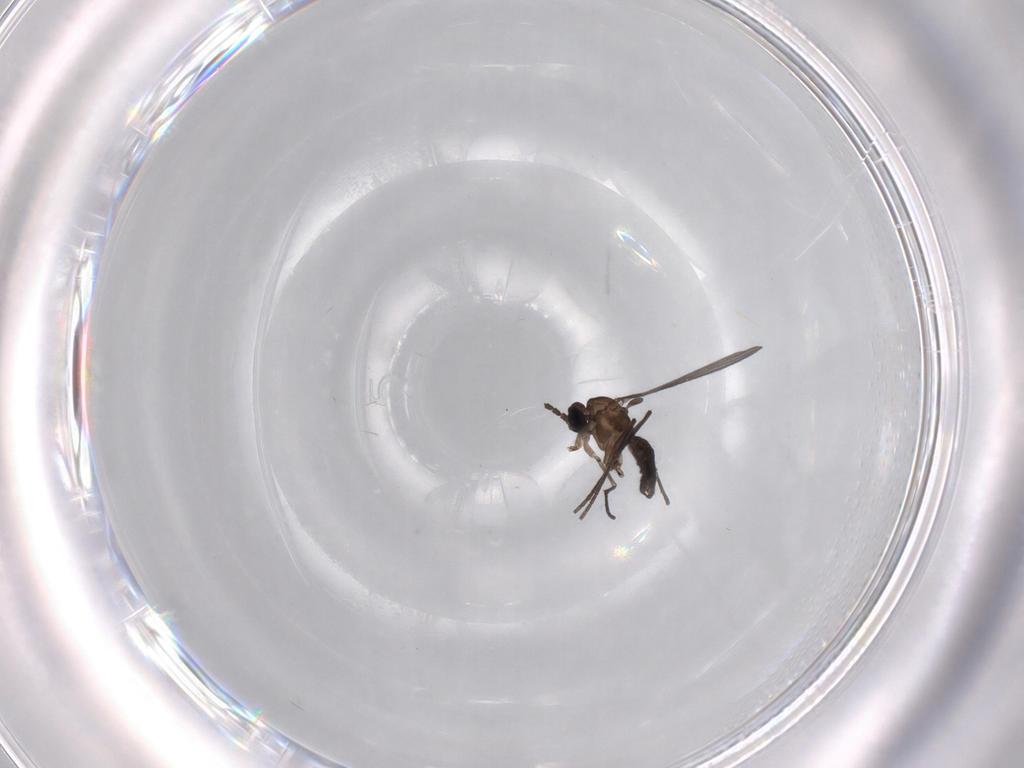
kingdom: Animalia
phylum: Arthropoda
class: Insecta
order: Diptera
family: Sciaridae
